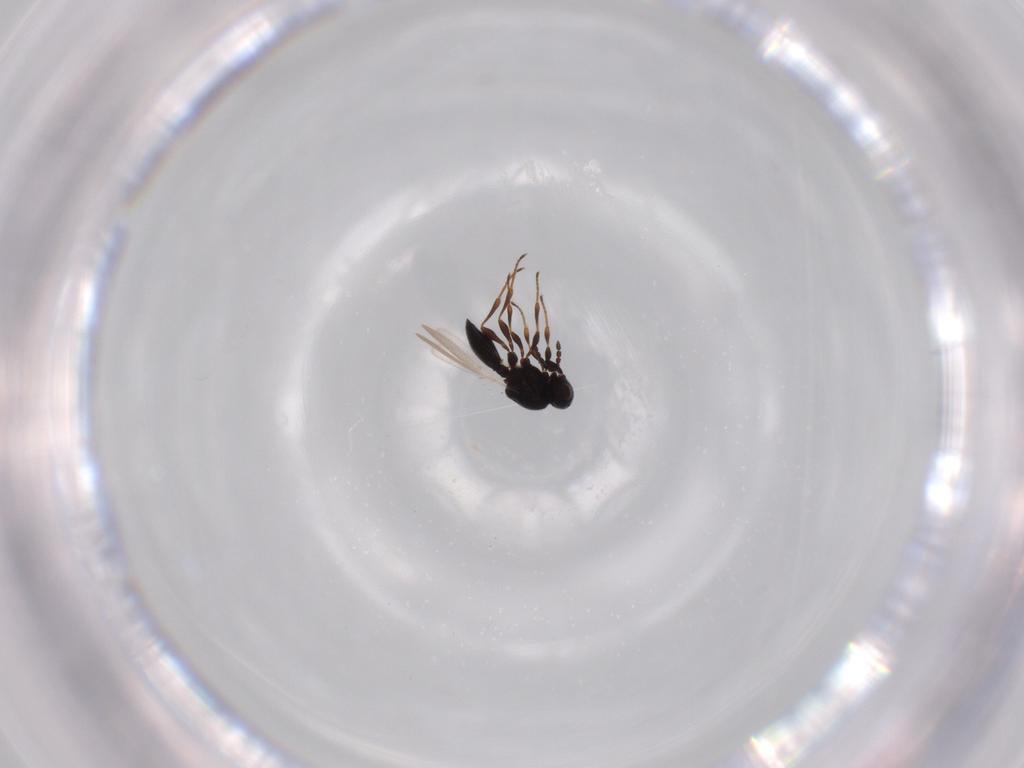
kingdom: Animalia
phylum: Arthropoda
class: Insecta
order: Hymenoptera
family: Platygastridae
